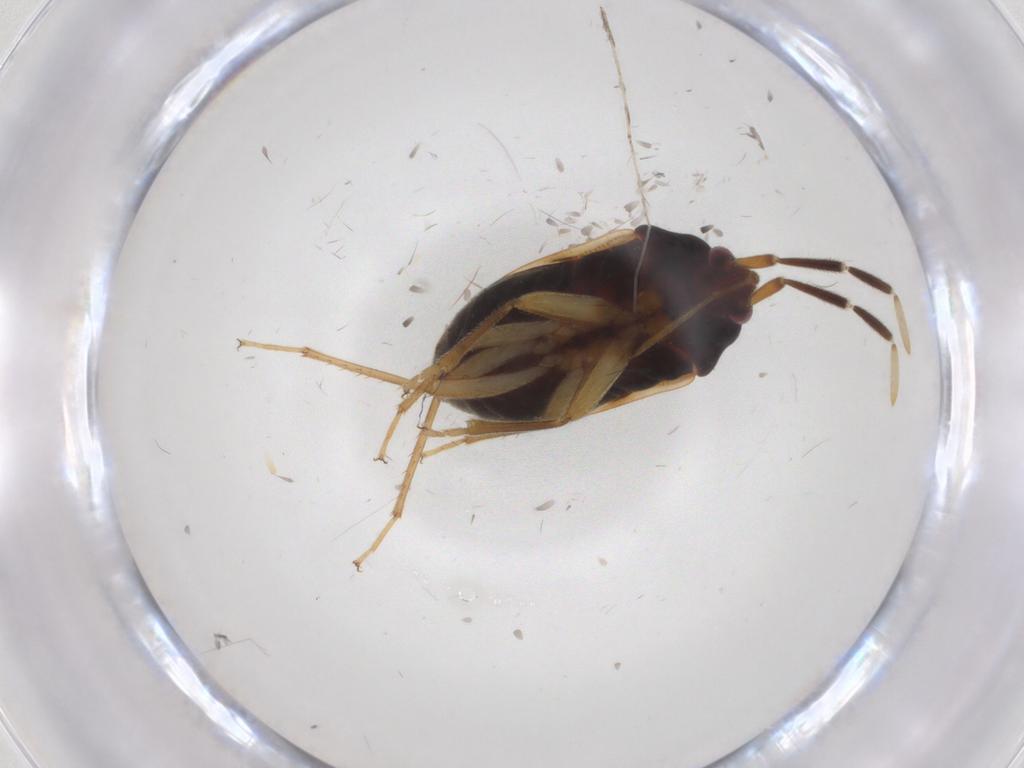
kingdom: Animalia
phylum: Arthropoda
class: Insecta
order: Hemiptera
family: Rhyparochromidae
